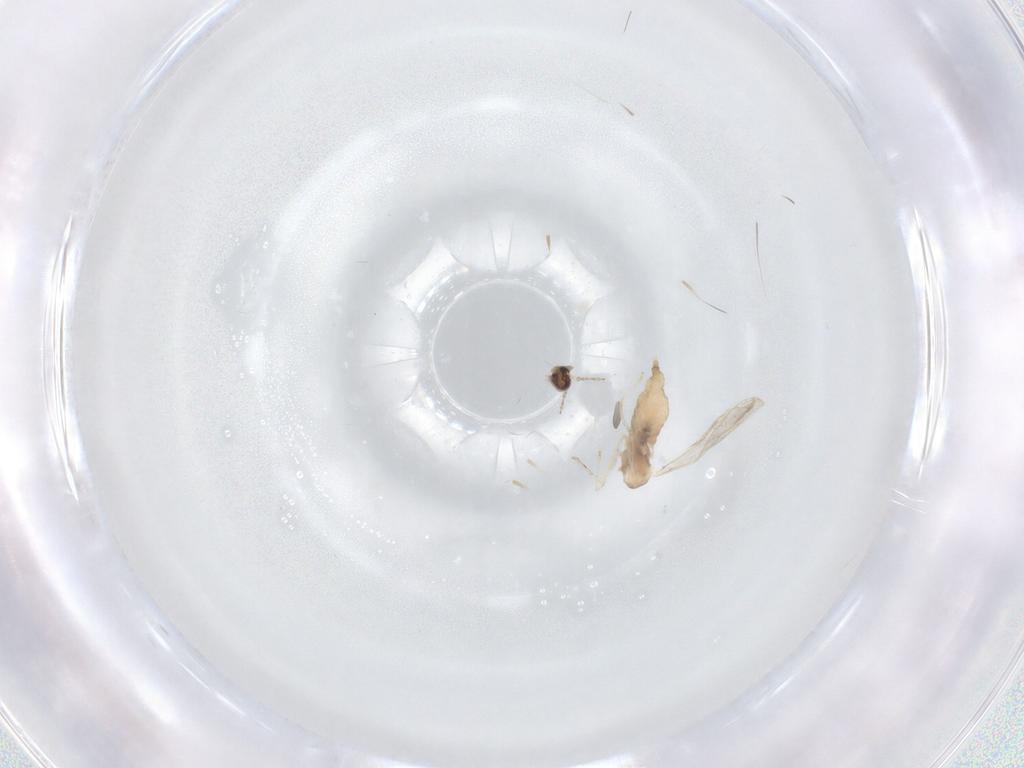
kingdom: Animalia
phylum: Arthropoda
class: Insecta
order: Diptera
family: Cecidomyiidae
